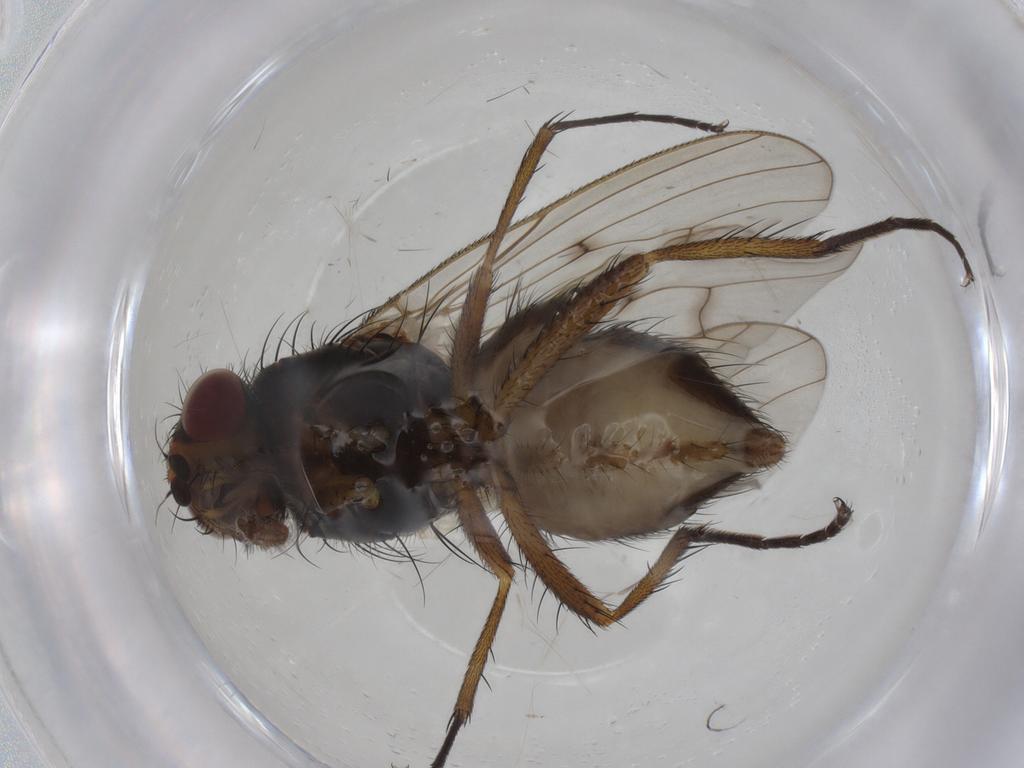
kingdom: Animalia
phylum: Arthropoda
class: Insecta
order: Diptera
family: Anthomyiidae
